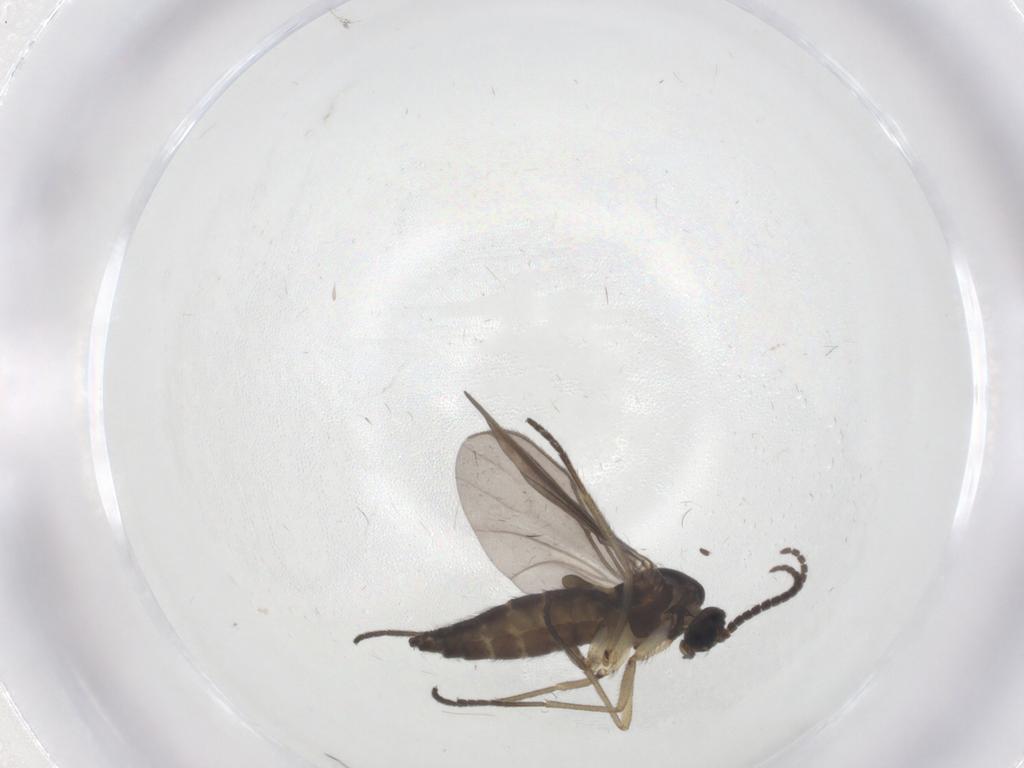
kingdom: Animalia
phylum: Arthropoda
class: Insecta
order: Diptera
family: Sciaridae
